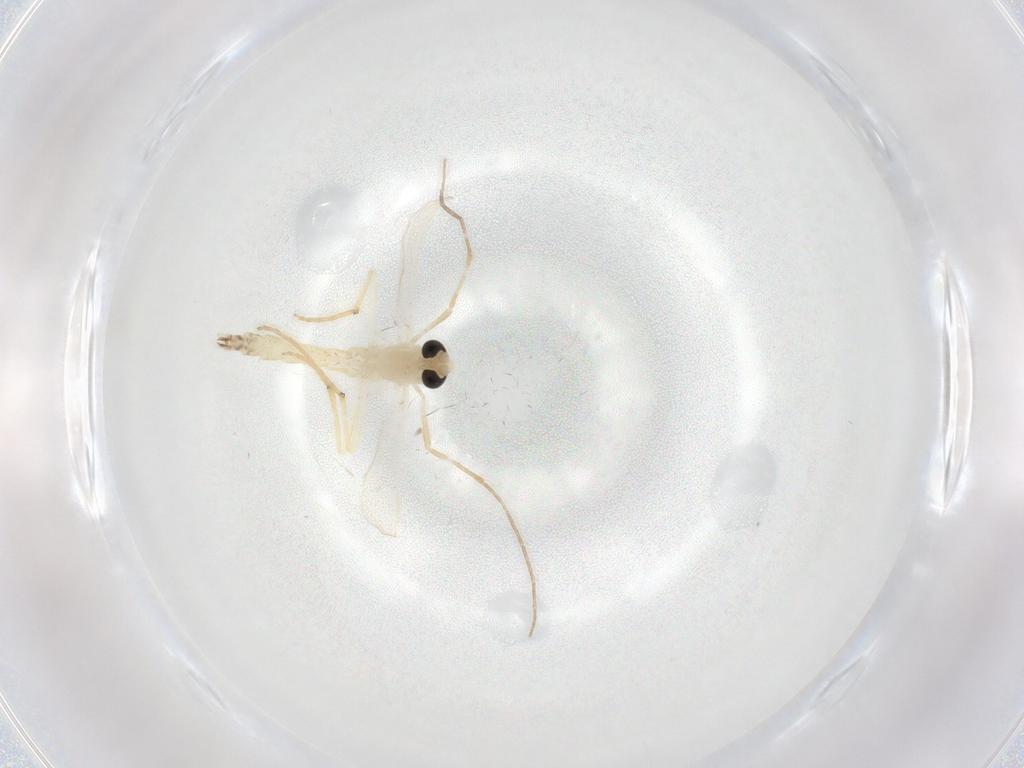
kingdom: Animalia
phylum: Arthropoda
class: Insecta
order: Diptera
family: Chironomidae
